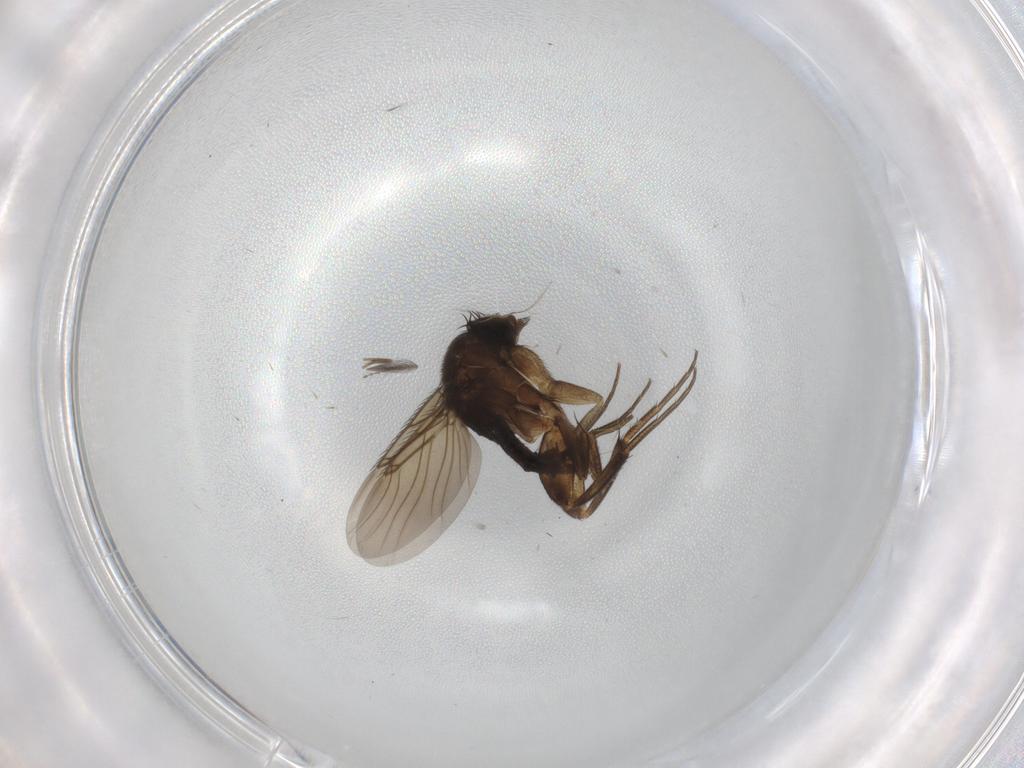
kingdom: Animalia
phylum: Arthropoda
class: Insecta
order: Diptera
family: Phoridae
